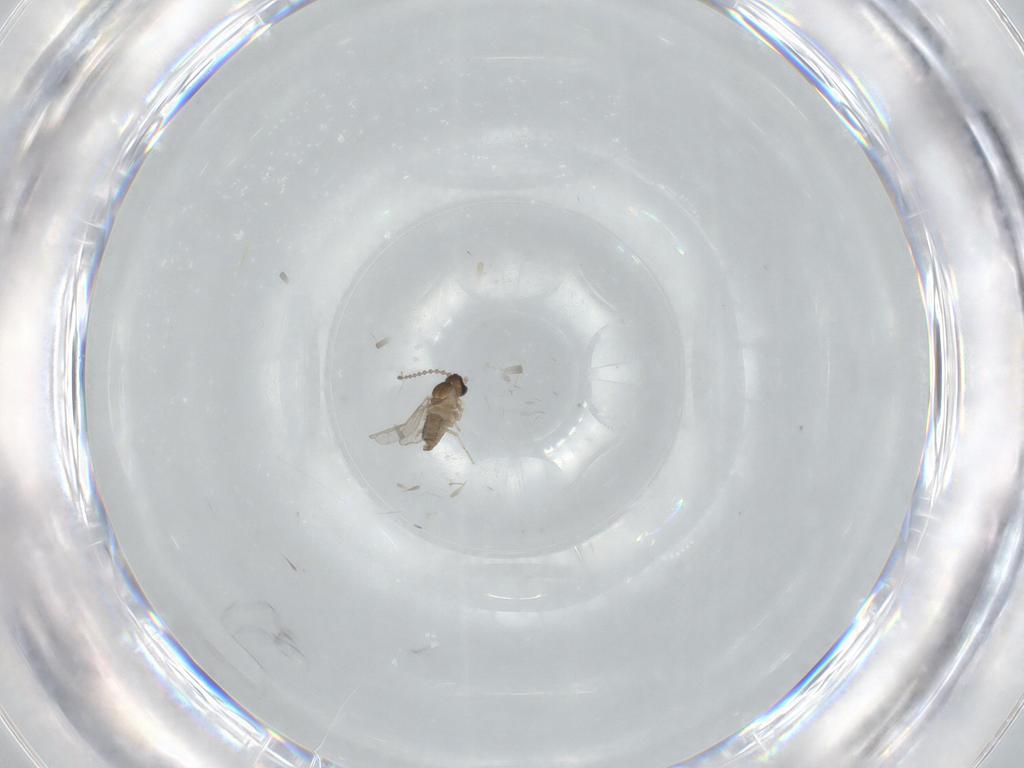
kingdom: Animalia
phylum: Arthropoda
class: Insecta
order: Diptera
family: Cecidomyiidae
